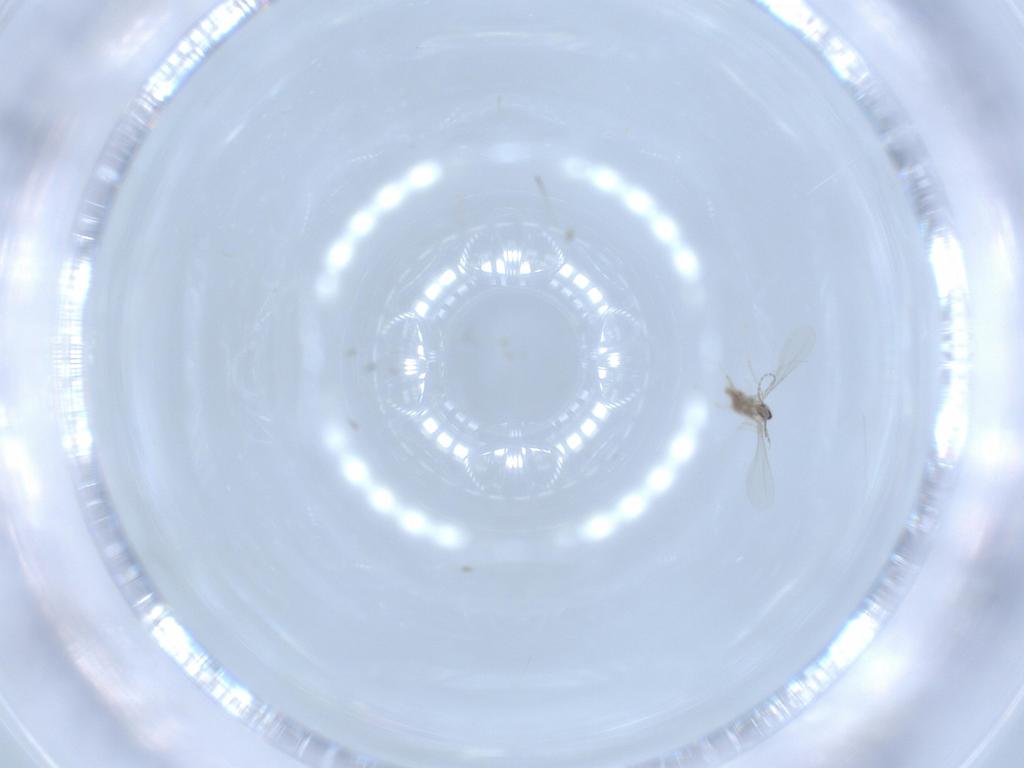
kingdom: Animalia
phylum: Arthropoda
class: Insecta
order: Diptera
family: Cecidomyiidae
